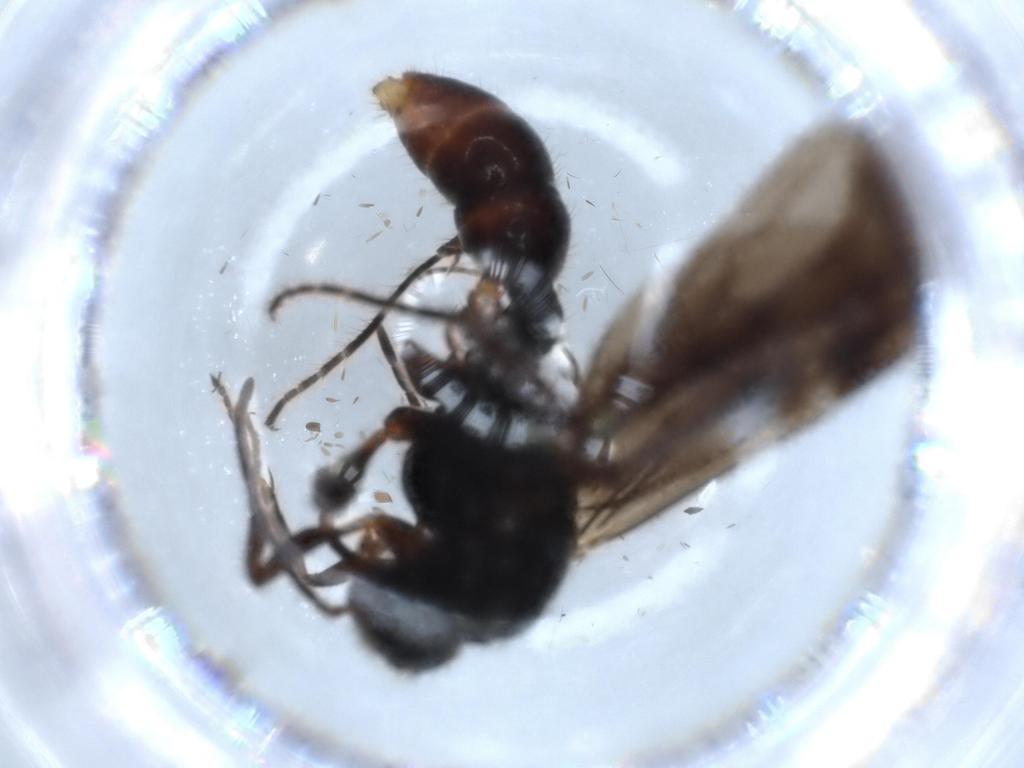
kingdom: Animalia
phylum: Arthropoda
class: Insecta
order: Hymenoptera
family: Formicidae
